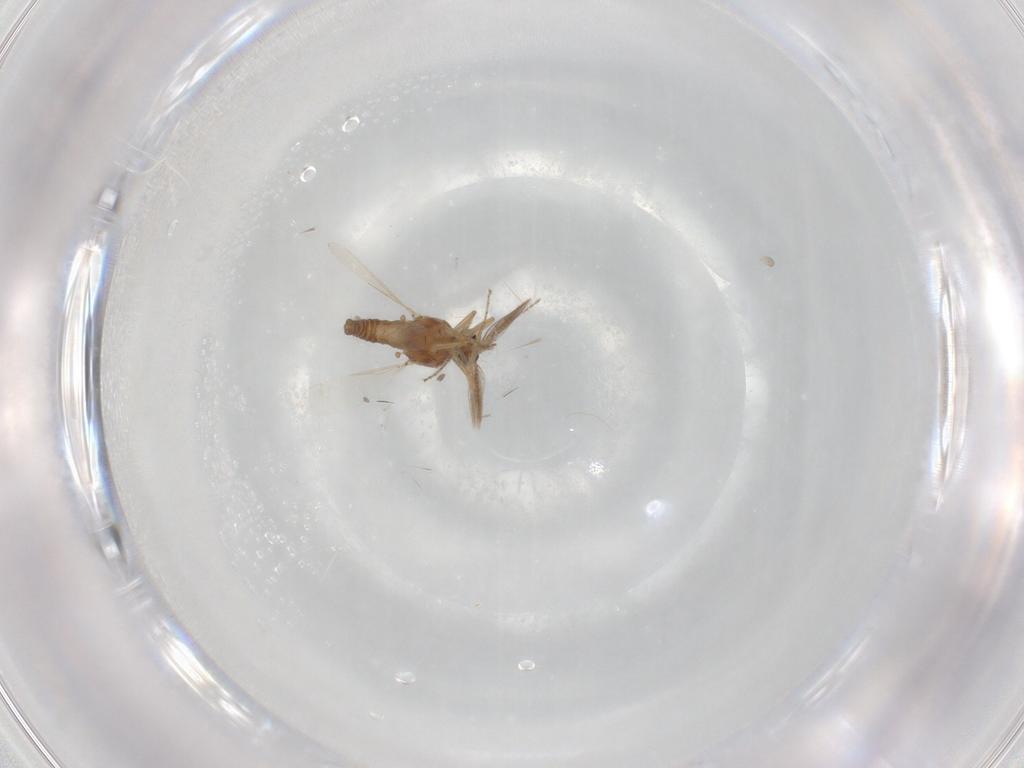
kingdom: Animalia
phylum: Arthropoda
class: Insecta
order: Diptera
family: Ceratopogonidae
